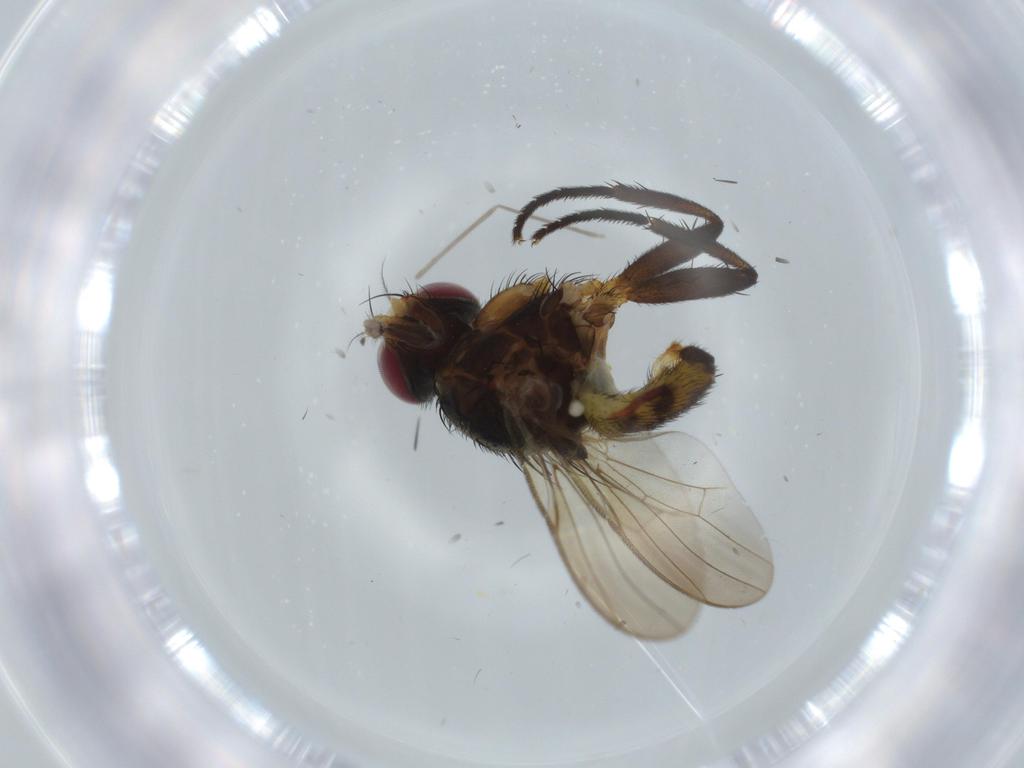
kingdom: Animalia
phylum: Arthropoda
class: Insecta
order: Diptera
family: Anthomyiidae
